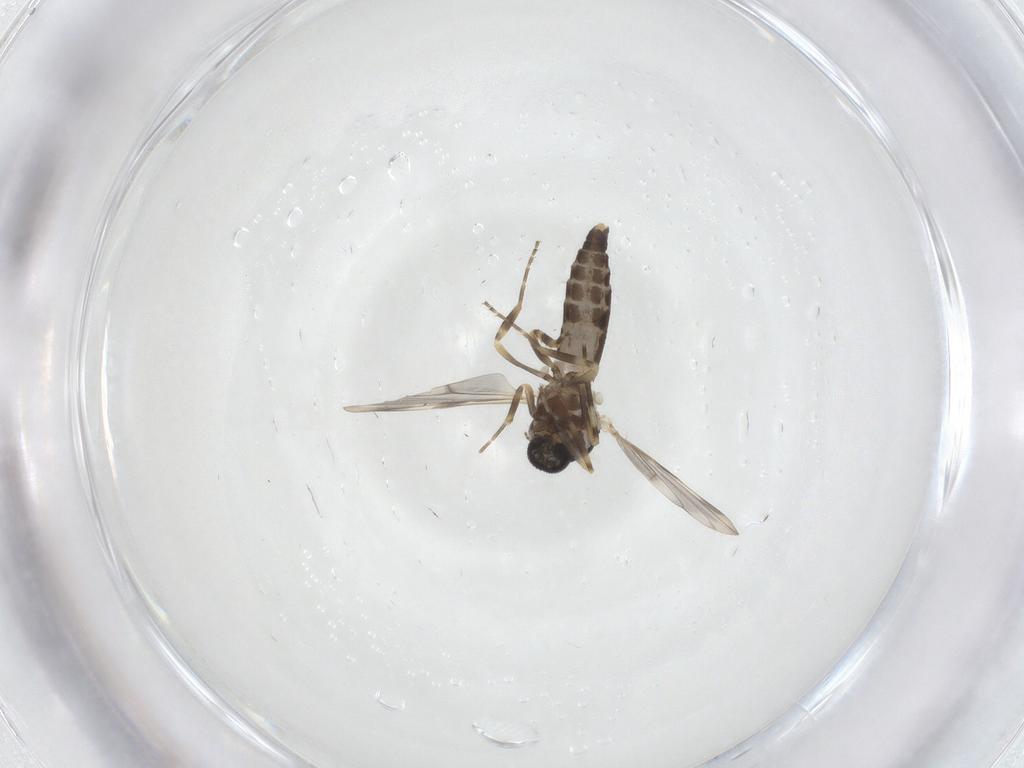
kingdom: Animalia
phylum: Arthropoda
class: Insecta
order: Diptera
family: Ceratopogonidae
